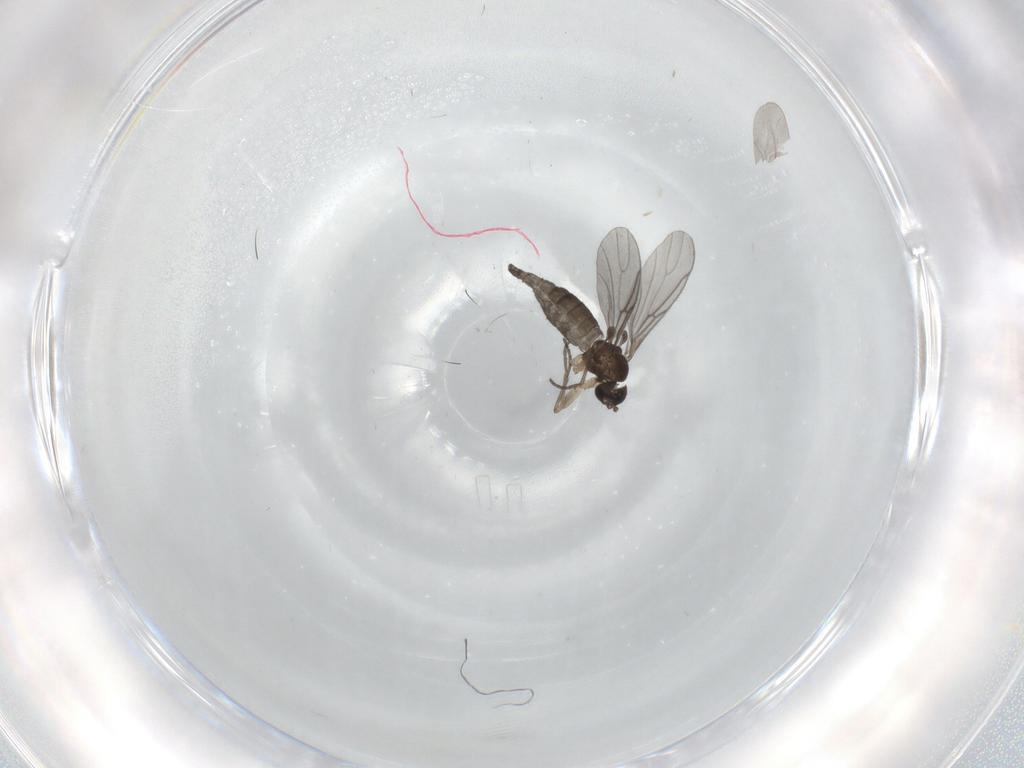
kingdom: Animalia
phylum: Arthropoda
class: Insecta
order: Diptera
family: Sciaridae
